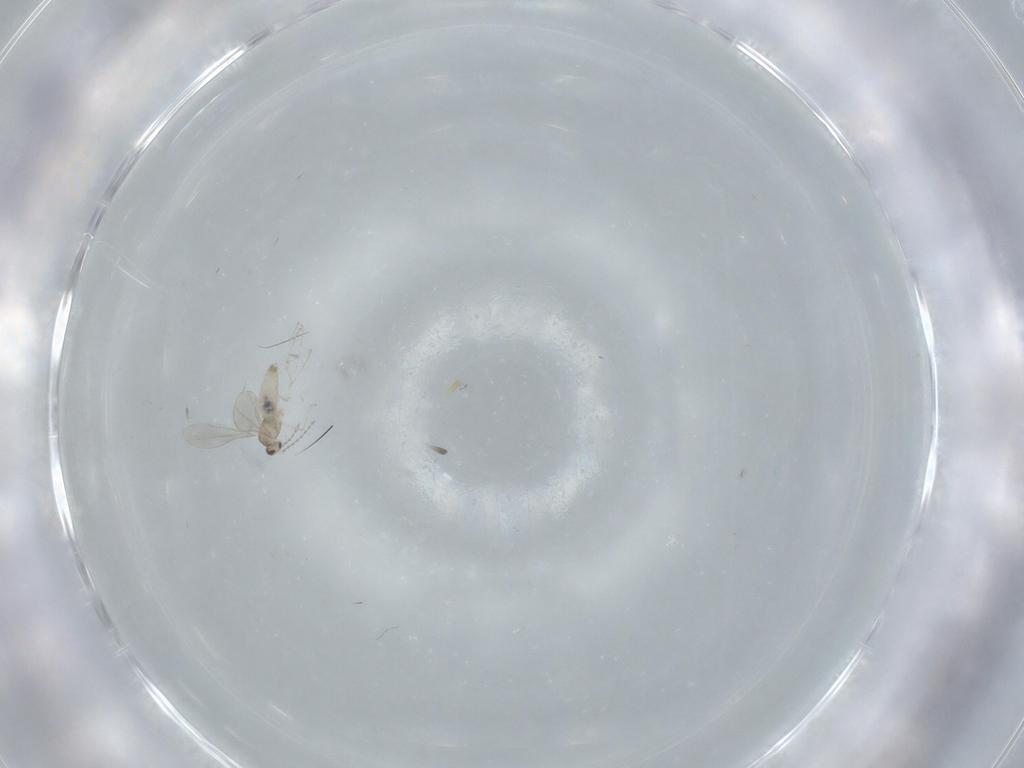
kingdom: Animalia
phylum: Arthropoda
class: Insecta
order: Diptera
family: Cecidomyiidae
